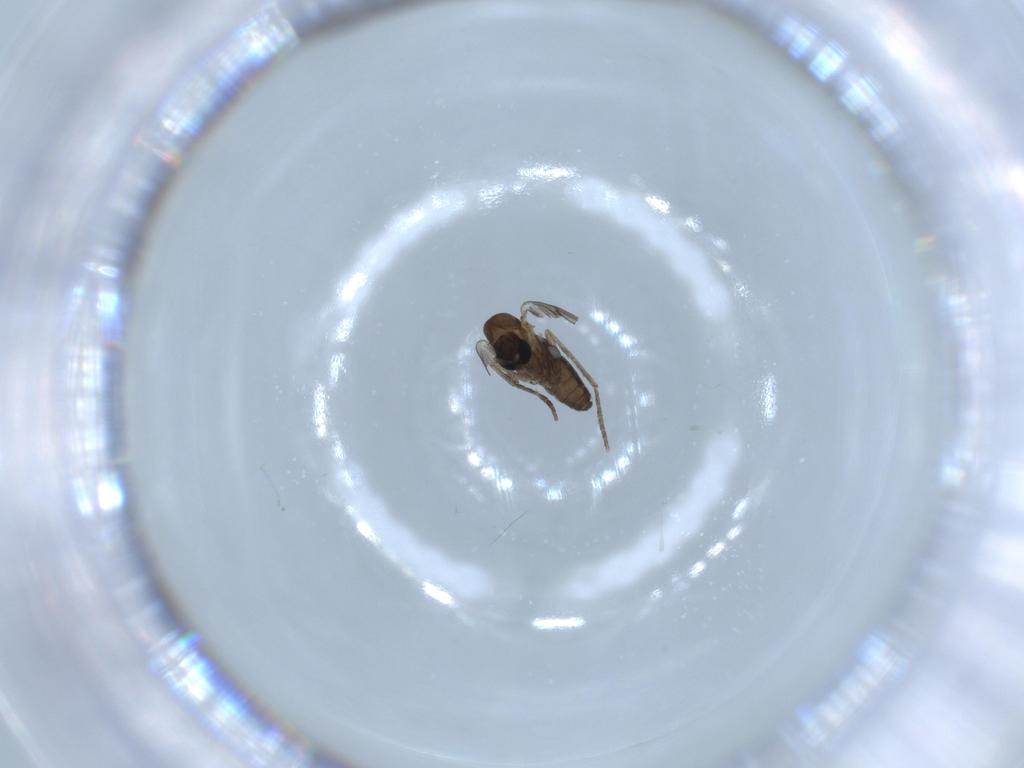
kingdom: Animalia
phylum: Arthropoda
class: Insecta
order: Diptera
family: Psychodidae
